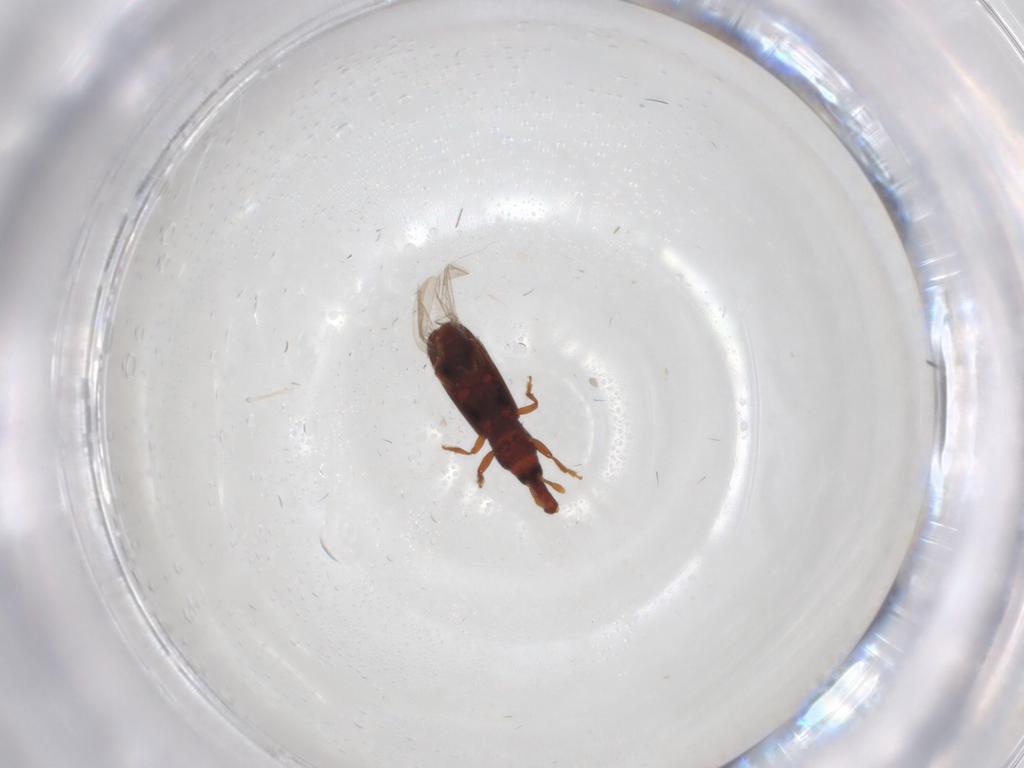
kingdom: Animalia
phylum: Arthropoda
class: Insecta
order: Coleoptera
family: Curculionidae
